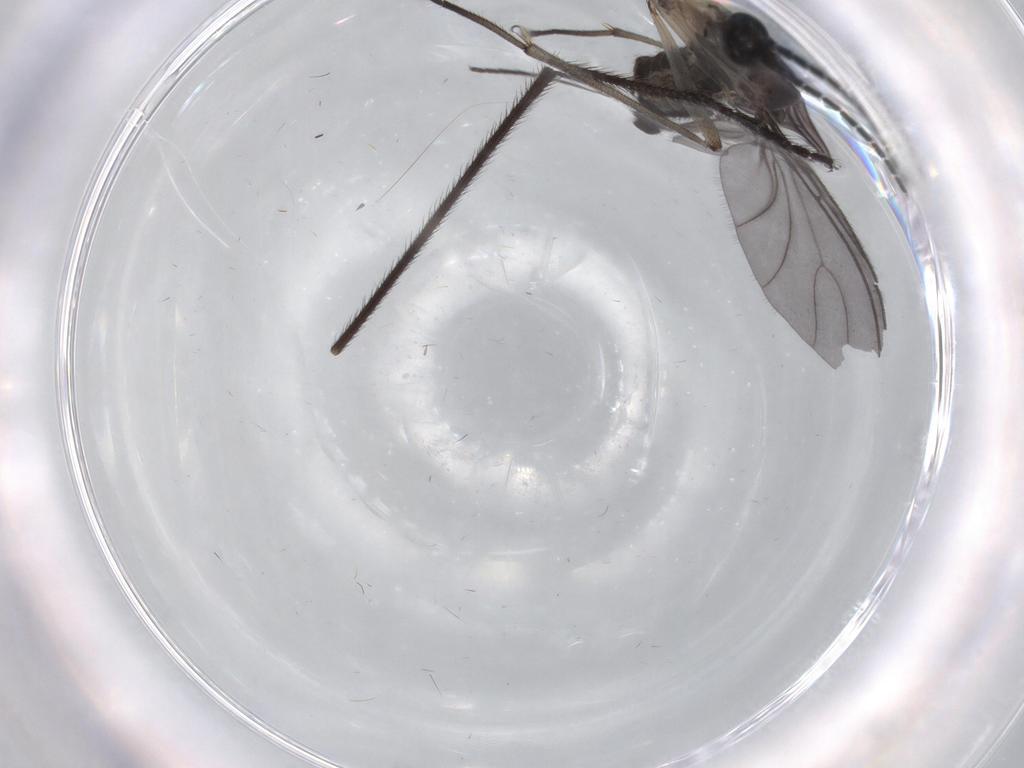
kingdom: Animalia
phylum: Arthropoda
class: Insecta
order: Diptera
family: Sciaridae
